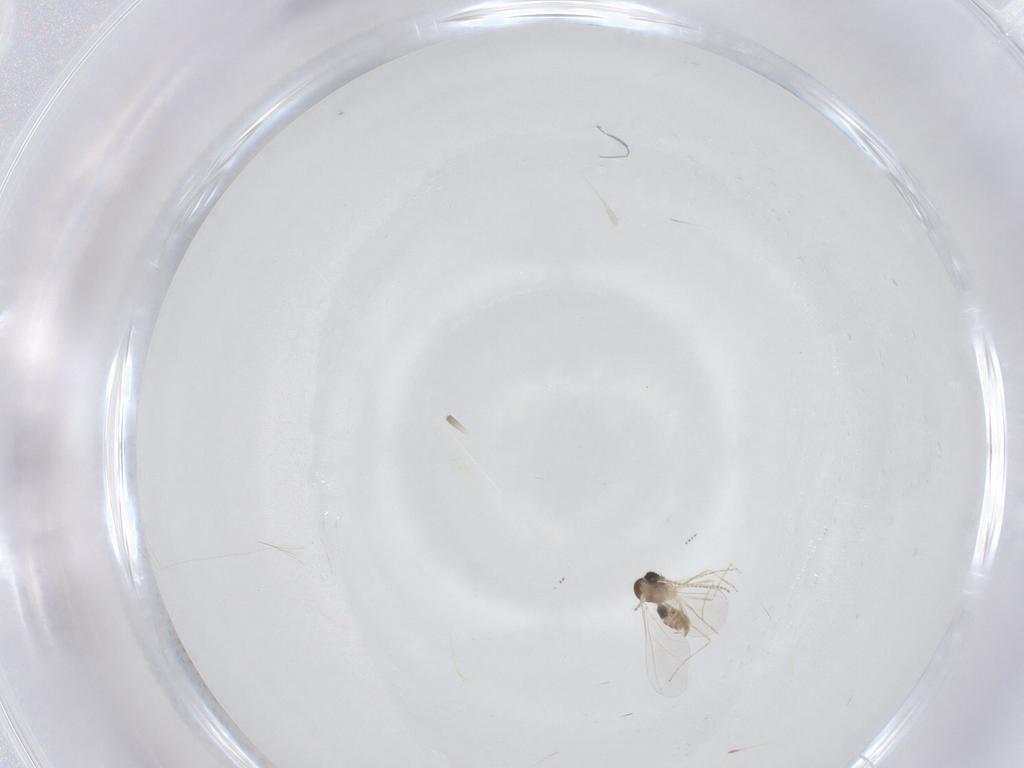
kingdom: Animalia
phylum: Arthropoda
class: Insecta
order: Diptera
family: Cecidomyiidae
